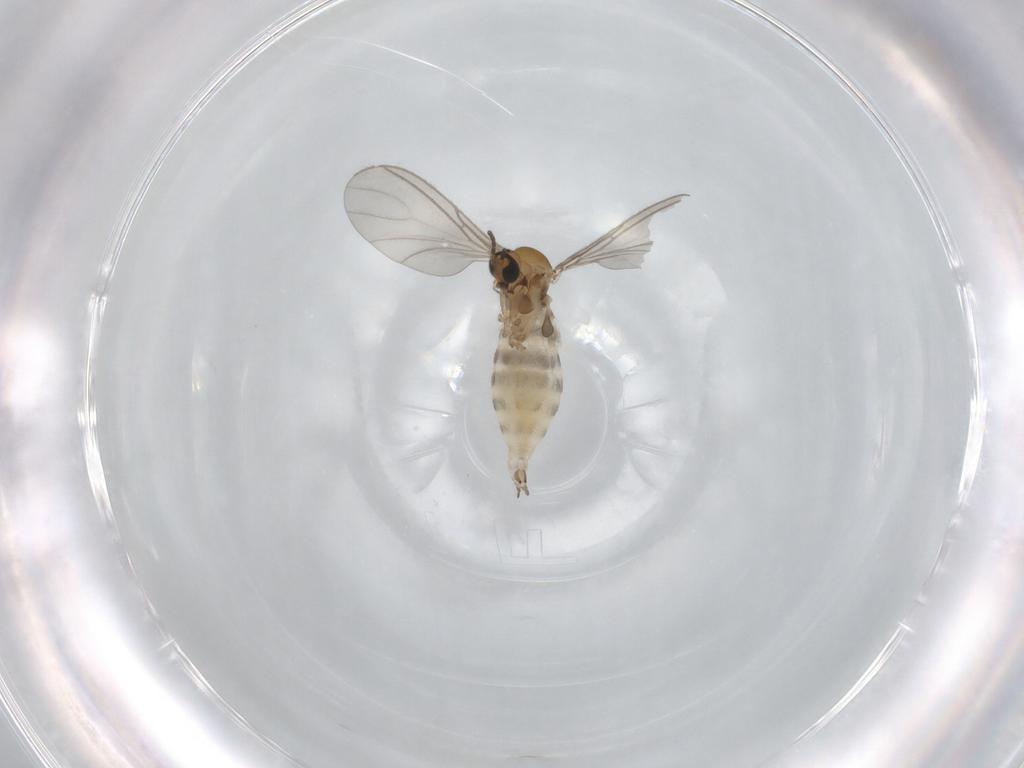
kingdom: Animalia
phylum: Arthropoda
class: Insecta
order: Diptera
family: Sciaridae
